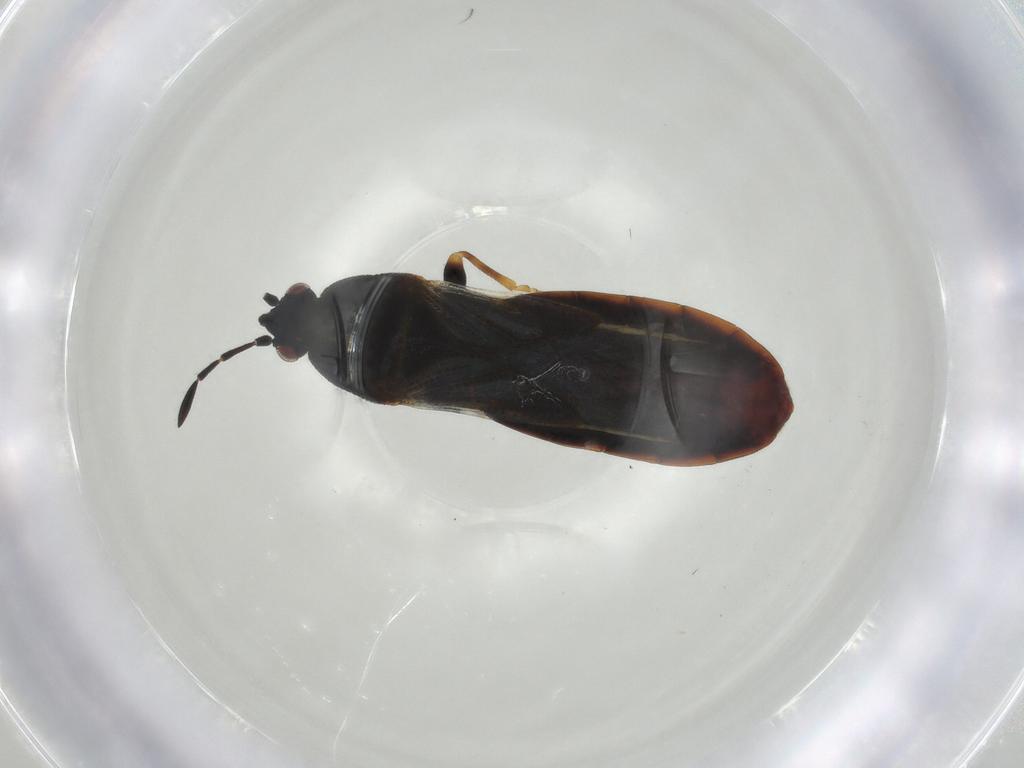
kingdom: Animalia
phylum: Arthropoda
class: Insecta
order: Hemiptera
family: Blissidae
